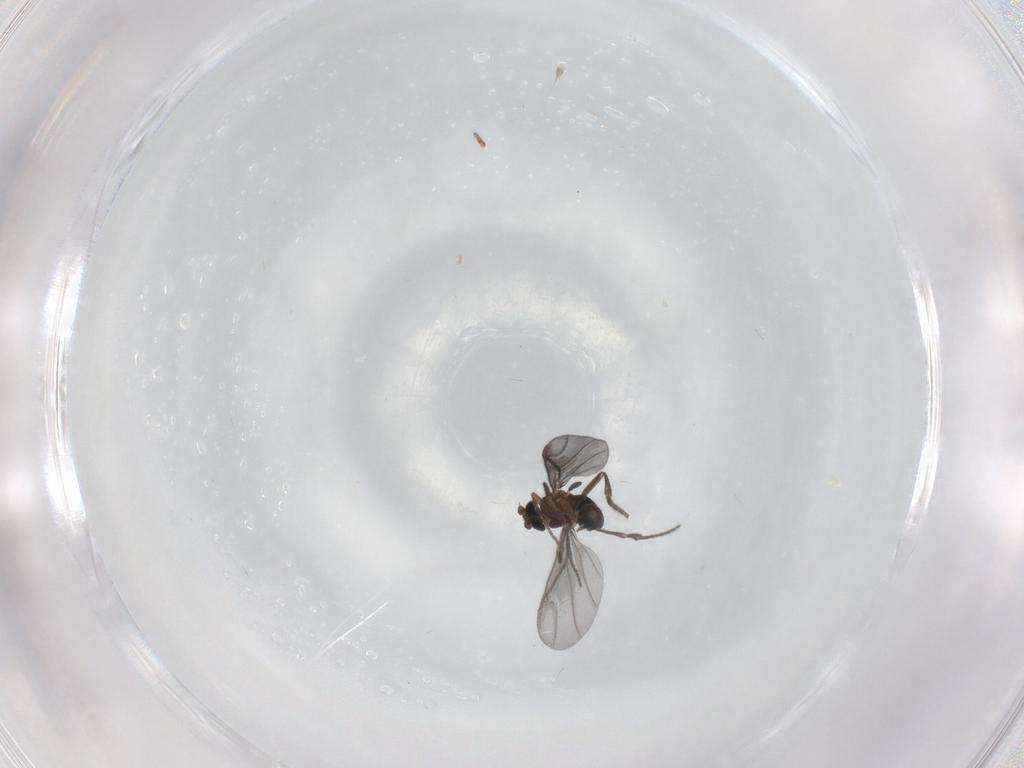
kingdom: Animalia
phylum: Arthropoda
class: Insecta
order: Diptera
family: Phoridae
